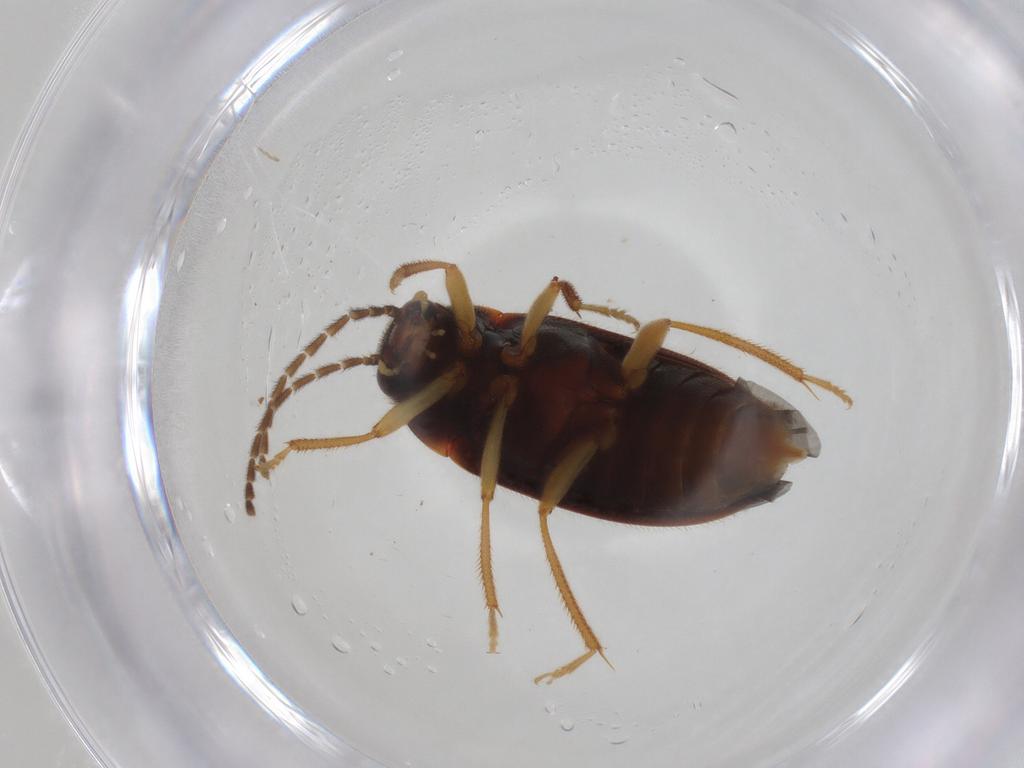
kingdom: Animalia
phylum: Arthropoda
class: Insecta
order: Coleoptera
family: Ptilodactylidae
